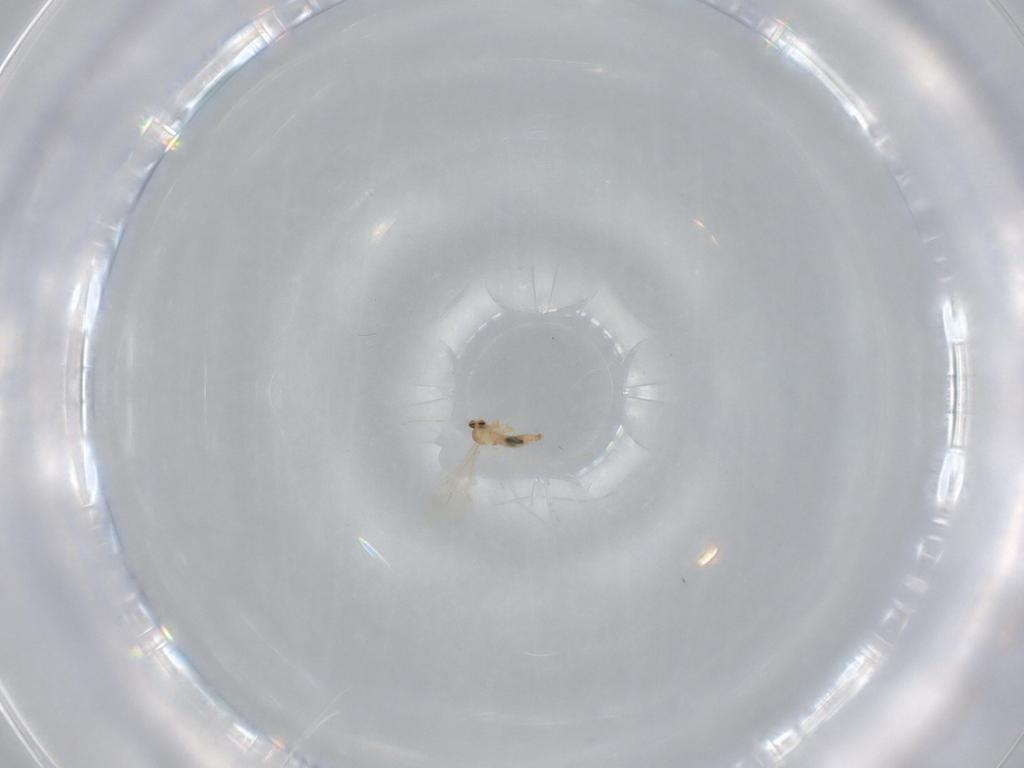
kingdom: Animalia
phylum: Arthropoda
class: Insecta
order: Diptera
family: Cecidomyiidae
